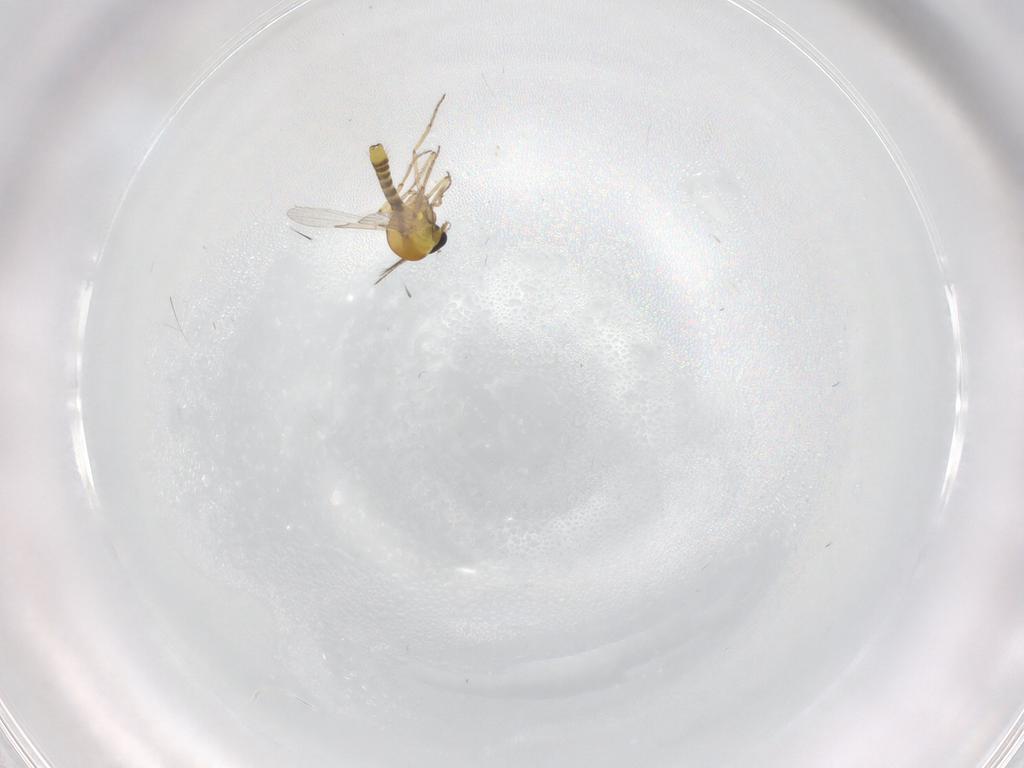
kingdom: Animalia
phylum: Arthropoda
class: Insecta
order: Diptera
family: Ceratopogonidae
